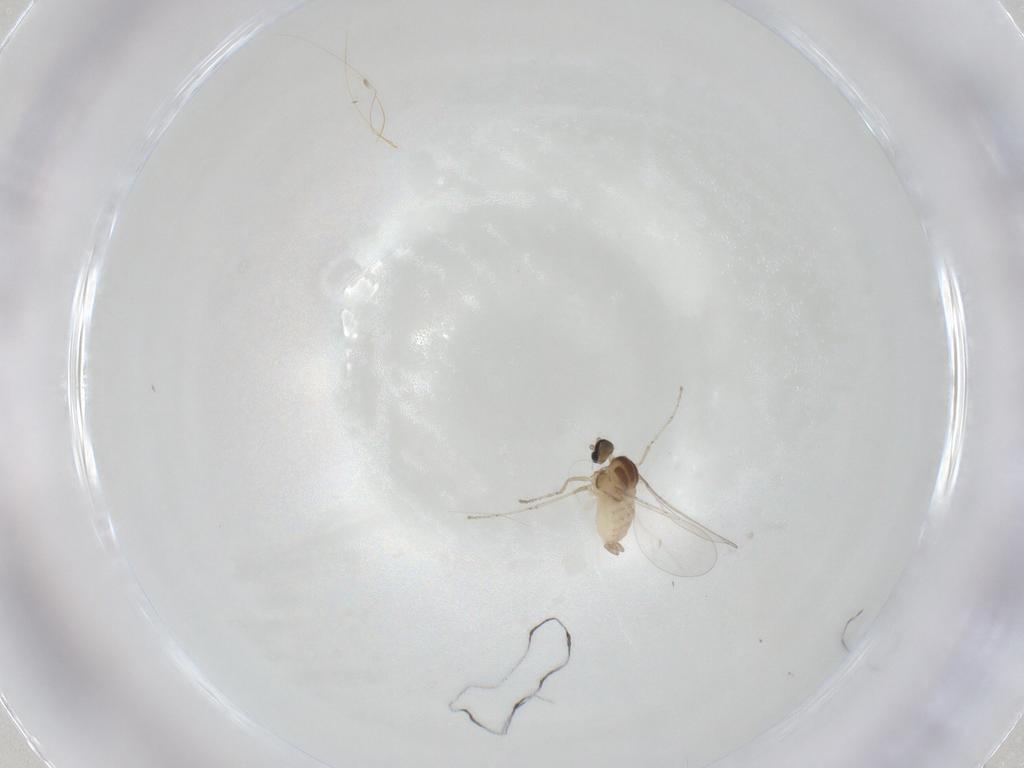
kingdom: Animalia
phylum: Arthropoda
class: Insecta
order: Diptera
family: Cecidomyiidae
